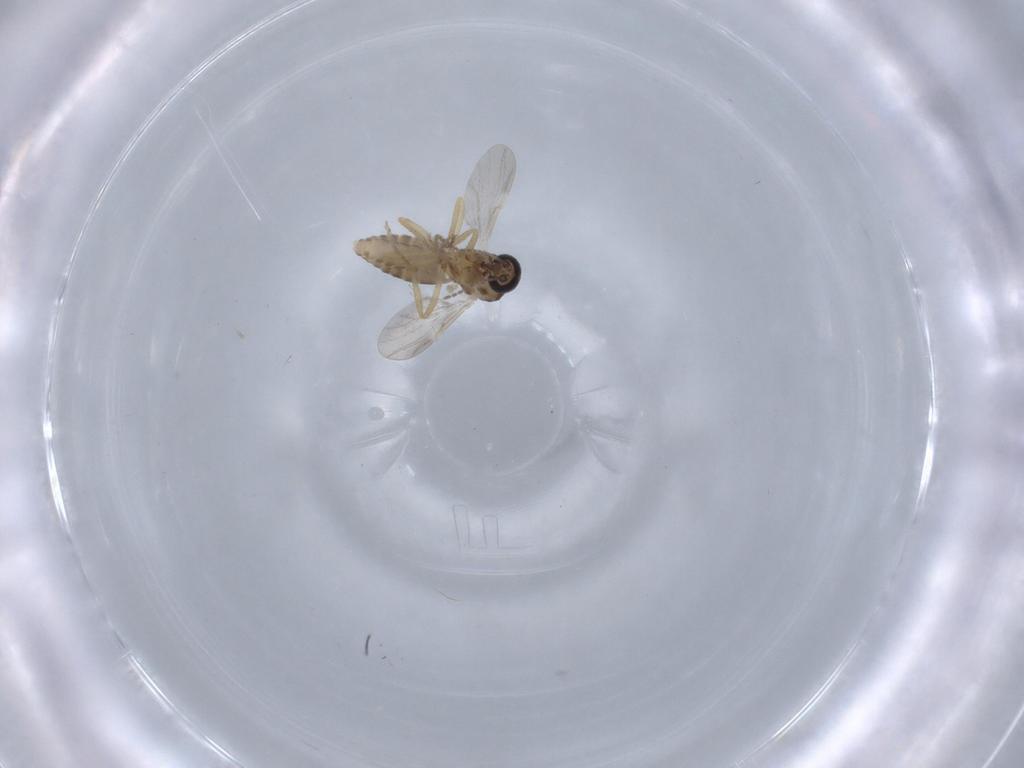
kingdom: Animalia
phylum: Arthropoda
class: Insecta
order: Diptera
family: Ceratopogonidae
